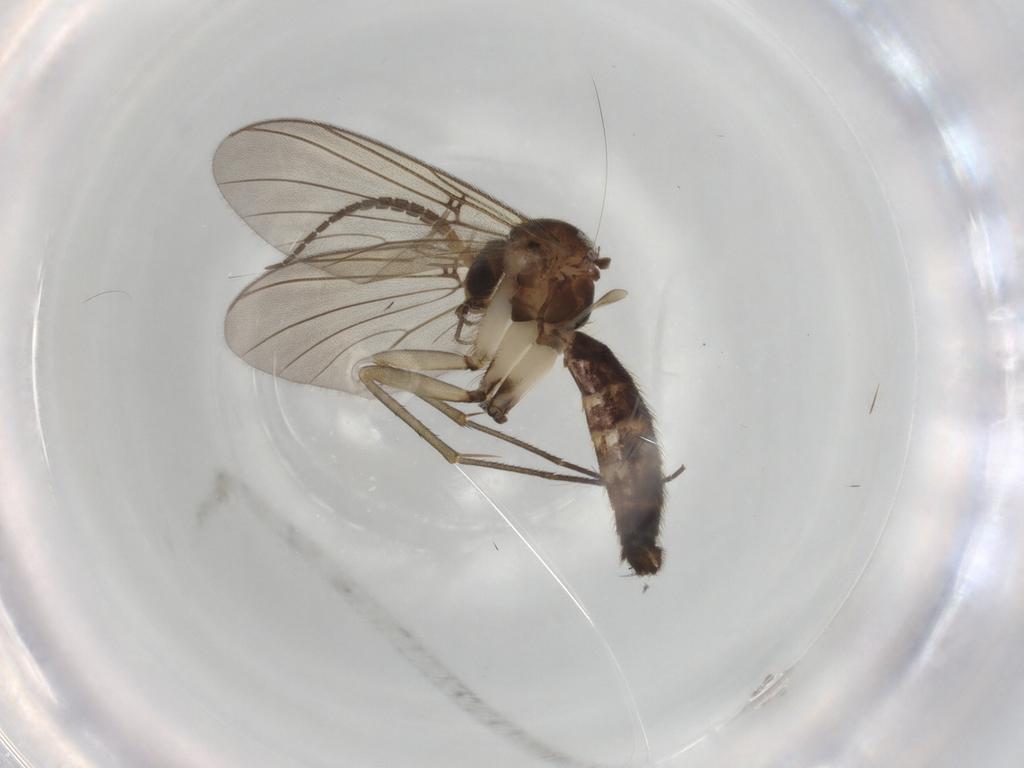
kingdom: Animalia
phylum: Arthropoda
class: Insecta
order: Diptera
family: Mycetophilidae
